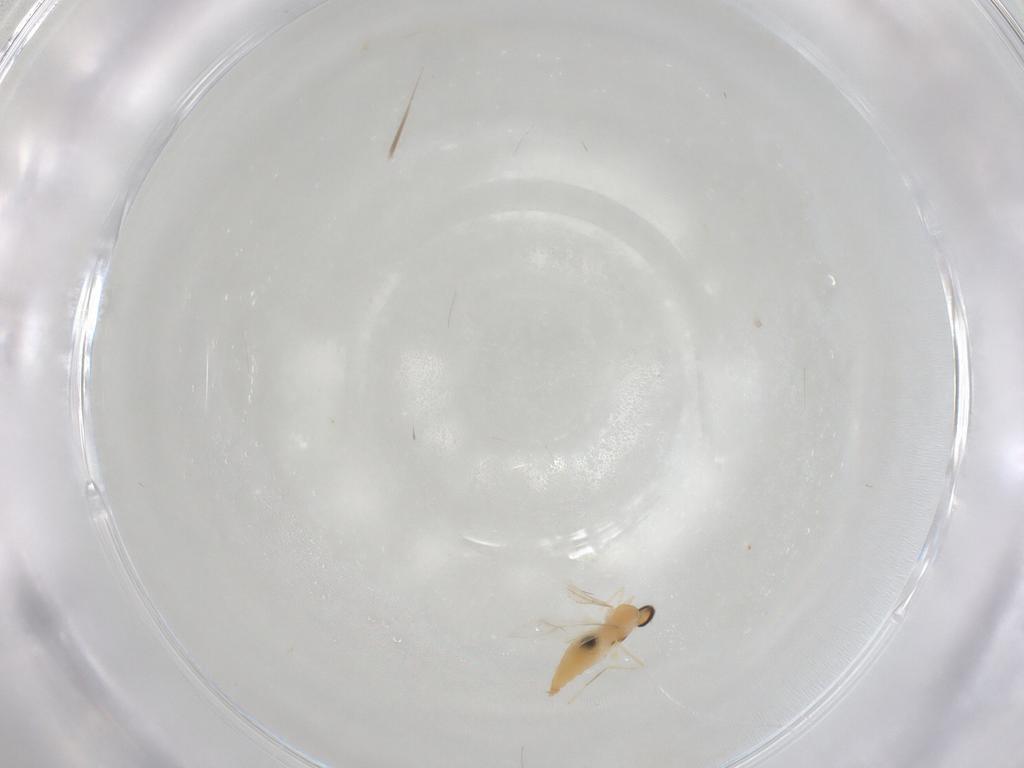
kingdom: Animalia
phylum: Arthropoda
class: Insecta
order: Diptera
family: Cecidomyiidae
